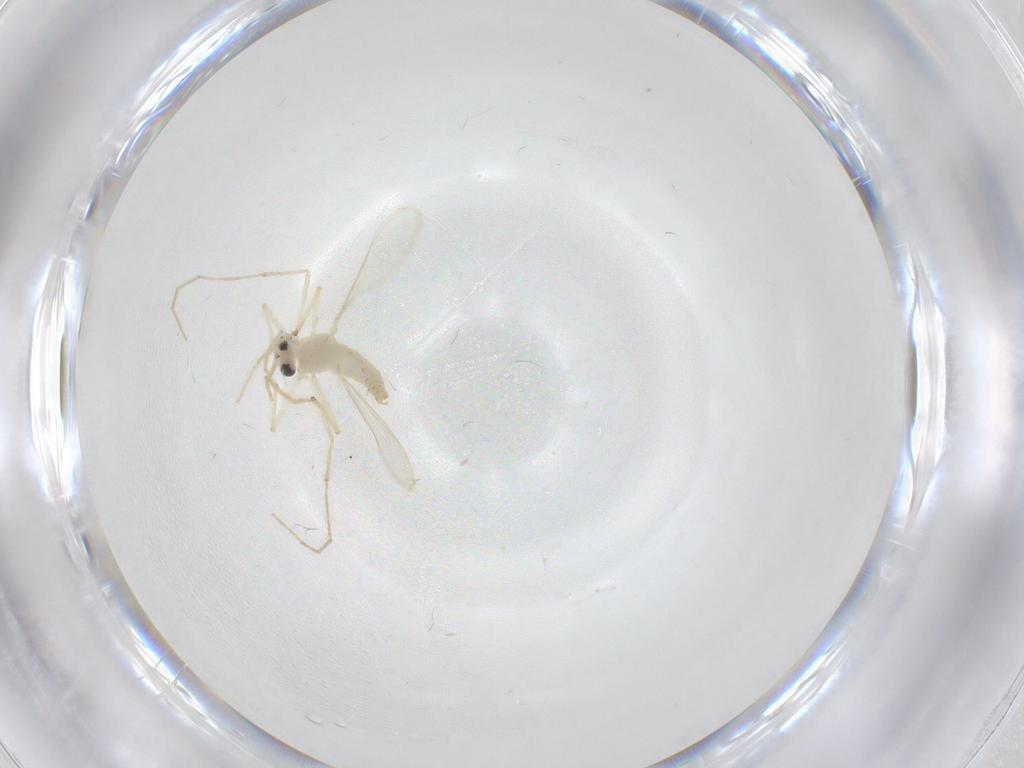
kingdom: Animalia
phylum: Arthropoda
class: Insecta
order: Diptera
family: Chironomidae
